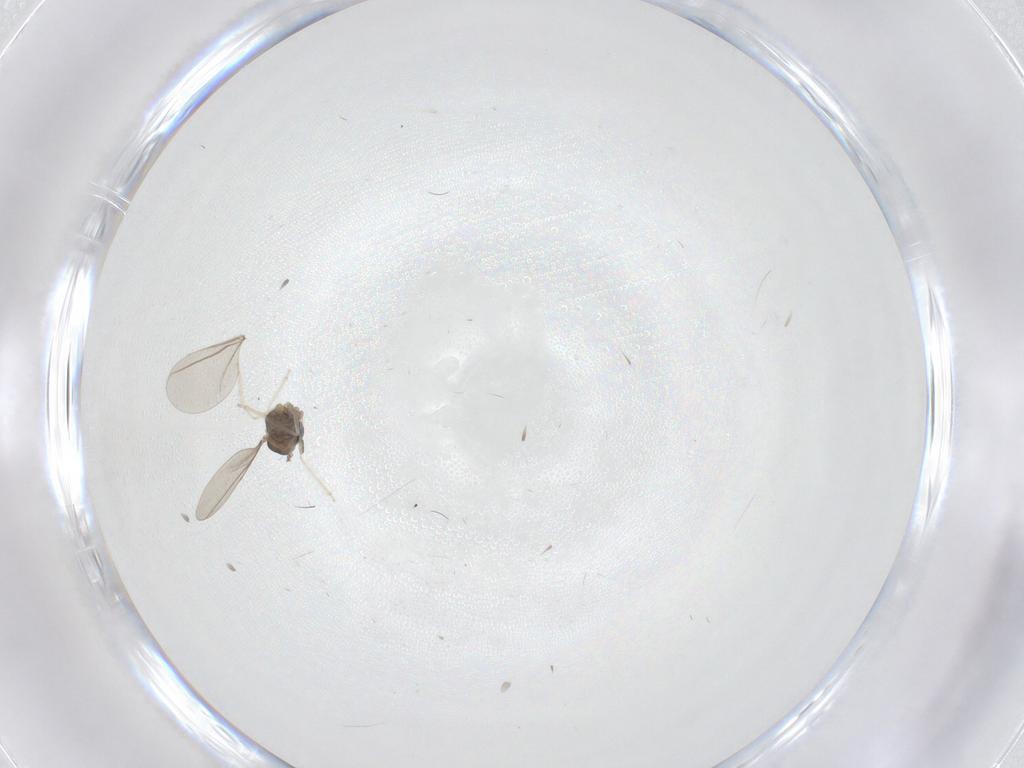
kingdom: Animalia
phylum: Arthropoda
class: Insecta
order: Diptera
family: Cecidomyiidae
